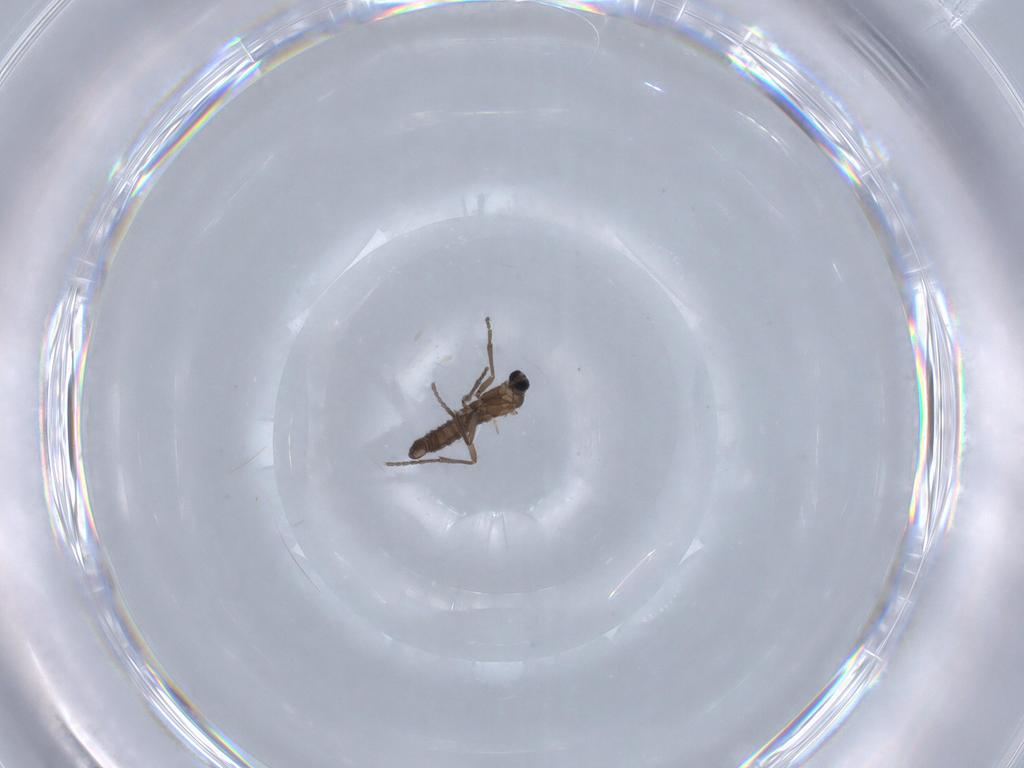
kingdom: Animalia
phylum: Arthropoda
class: Insecta
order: Diptera
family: Sciaridae
